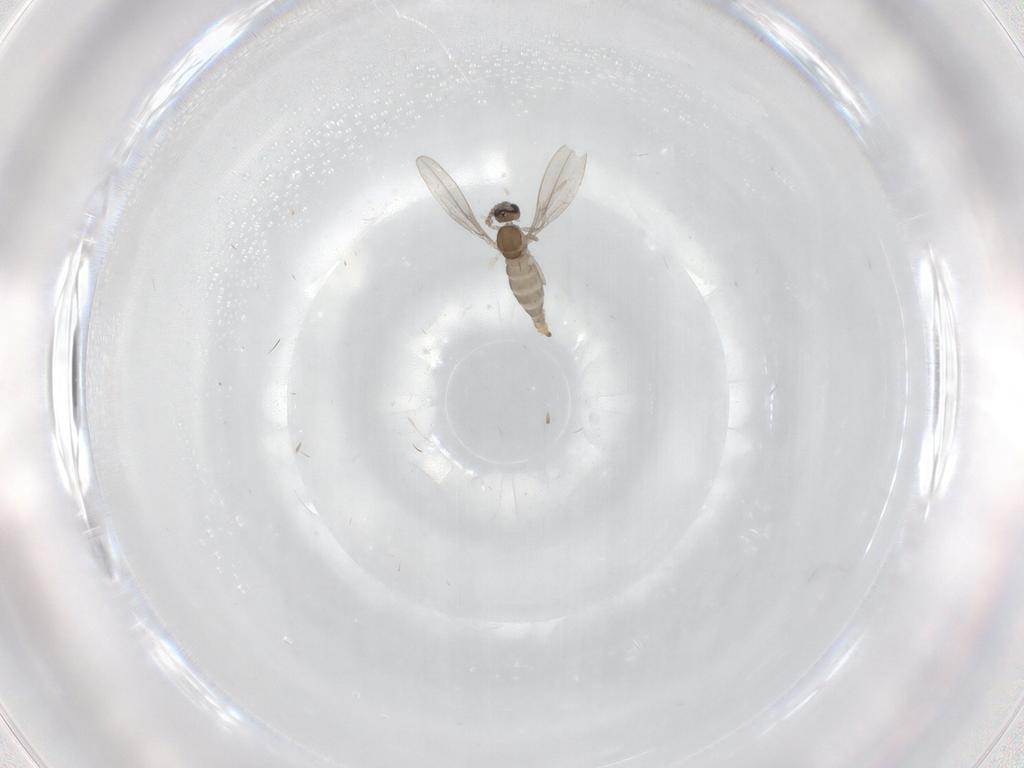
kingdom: Animalia
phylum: Arthropoda
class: Insecta
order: Diptera
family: Cecidomyiidae
